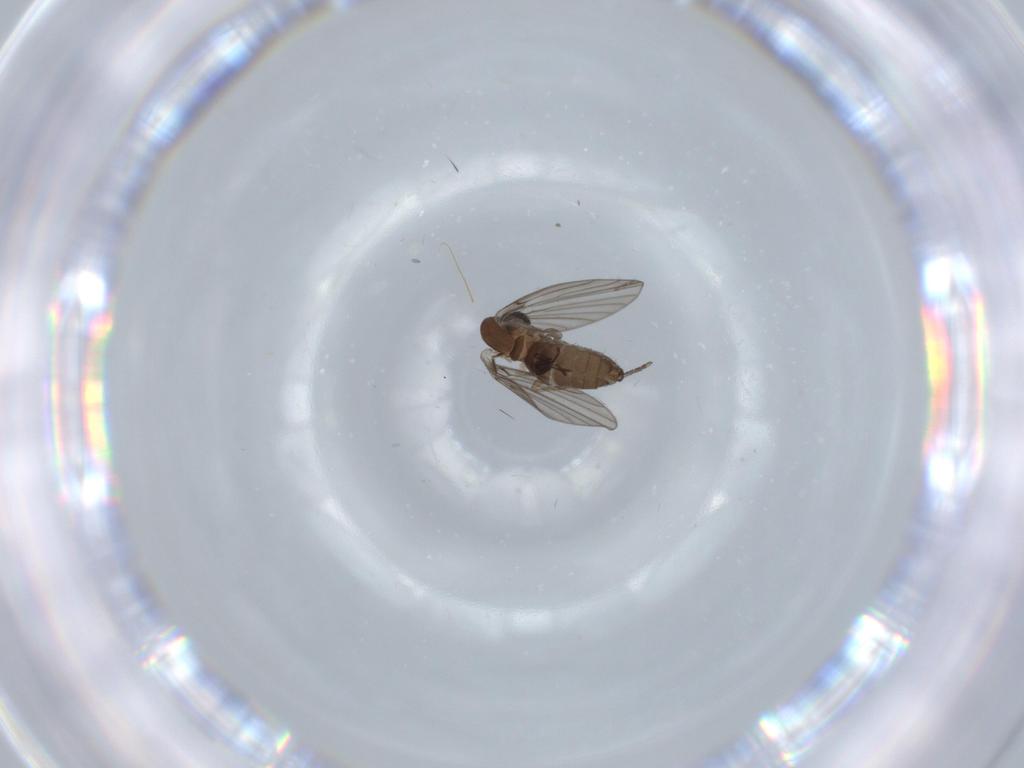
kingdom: Animalia
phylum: Arthropoda
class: Insecta
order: Diptera
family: Psychodidae
